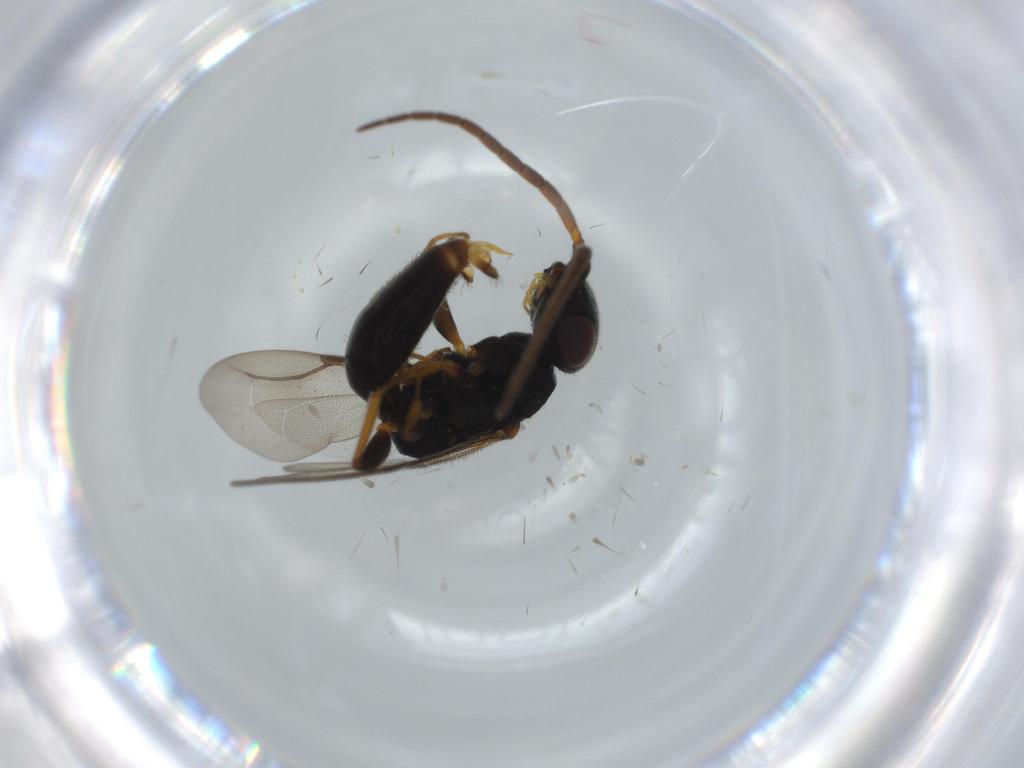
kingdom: Animalia
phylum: Arthropoda
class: Insecta
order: Hymenoptera
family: Bethylidae
